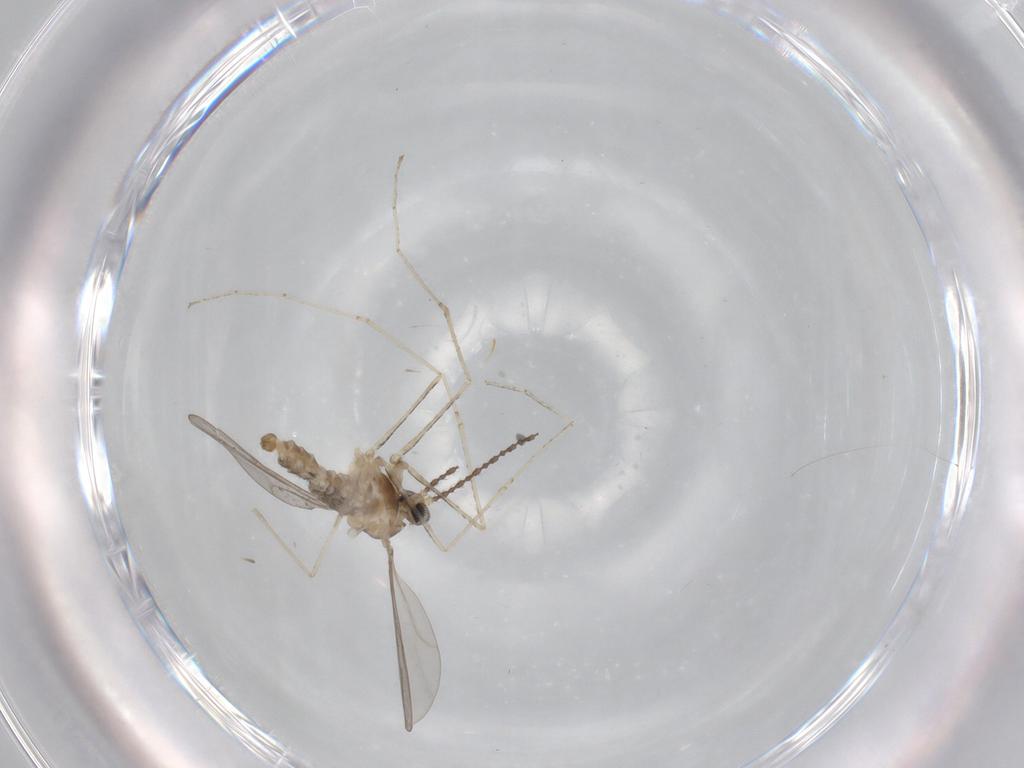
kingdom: Animalia
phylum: Arthropoda
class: Insecta
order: Diptera
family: Cecidomyiidae
